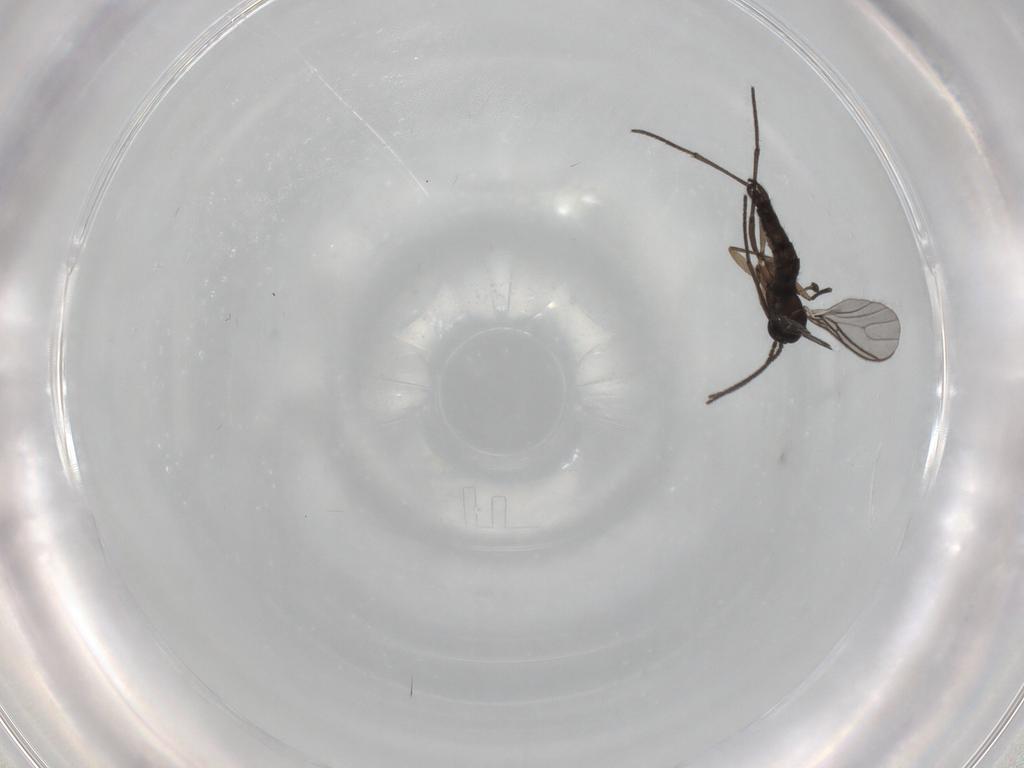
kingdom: Animalia
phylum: Arthropoda
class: Insecta
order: Diptera
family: Sciaridae
